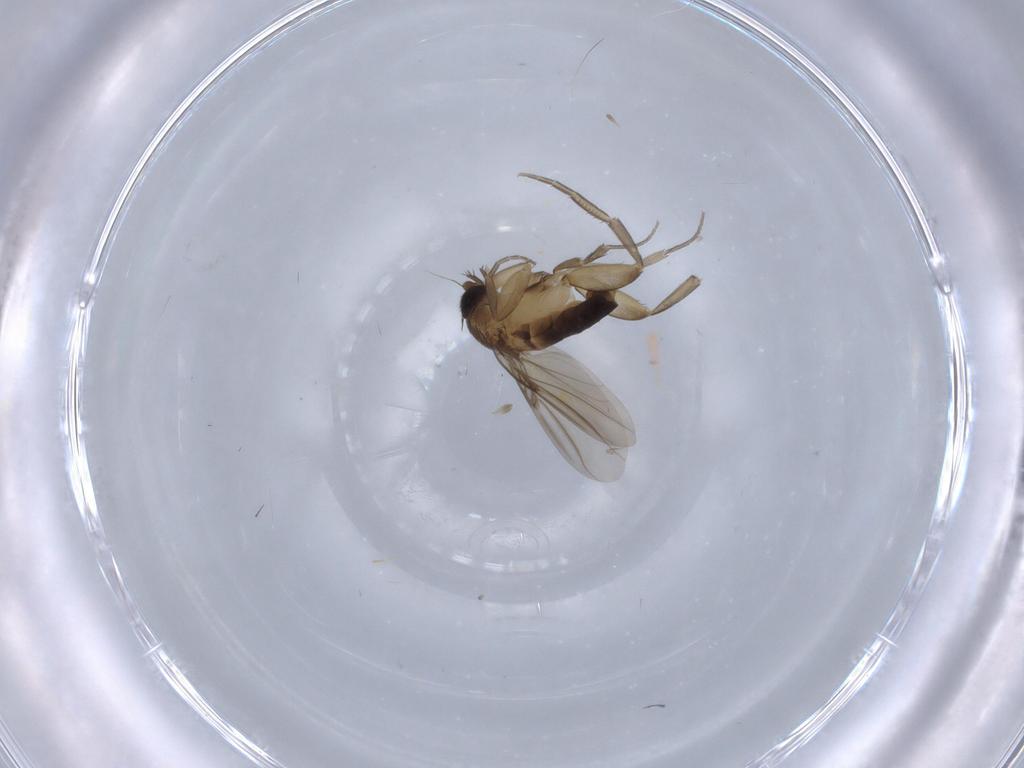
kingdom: Animalia
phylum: Arthropoda
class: Insecta
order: Diptera
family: Phoridae
